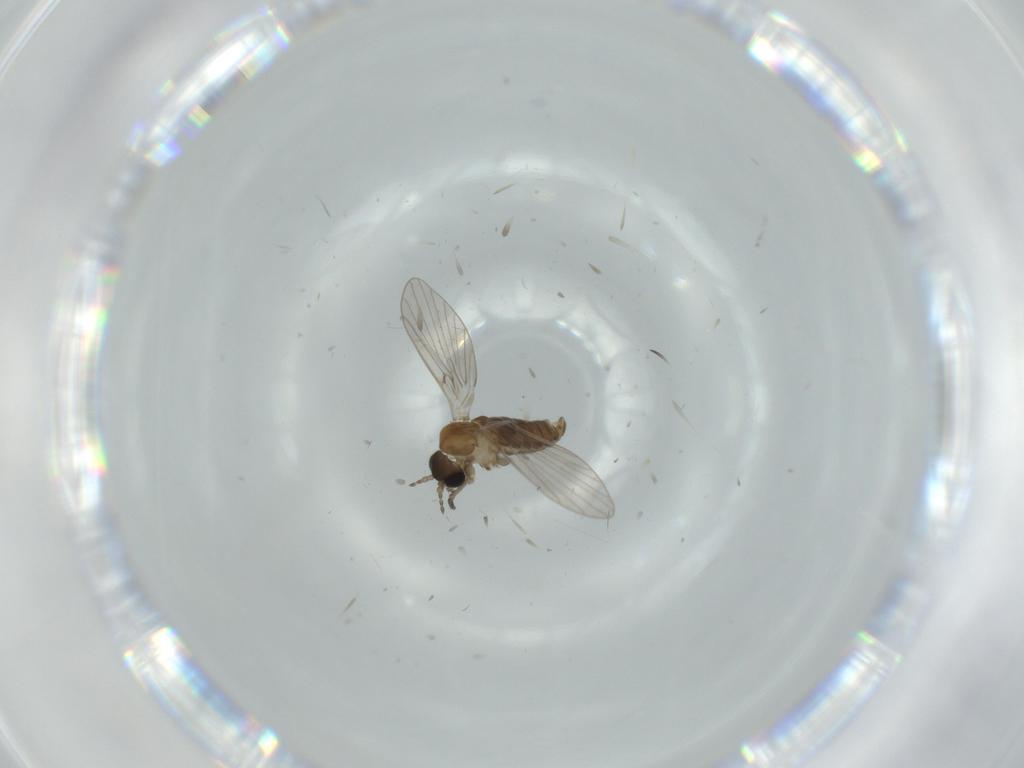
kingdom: Animalia
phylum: Arthropoda
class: Insecta
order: Diptera
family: Psychodidae
